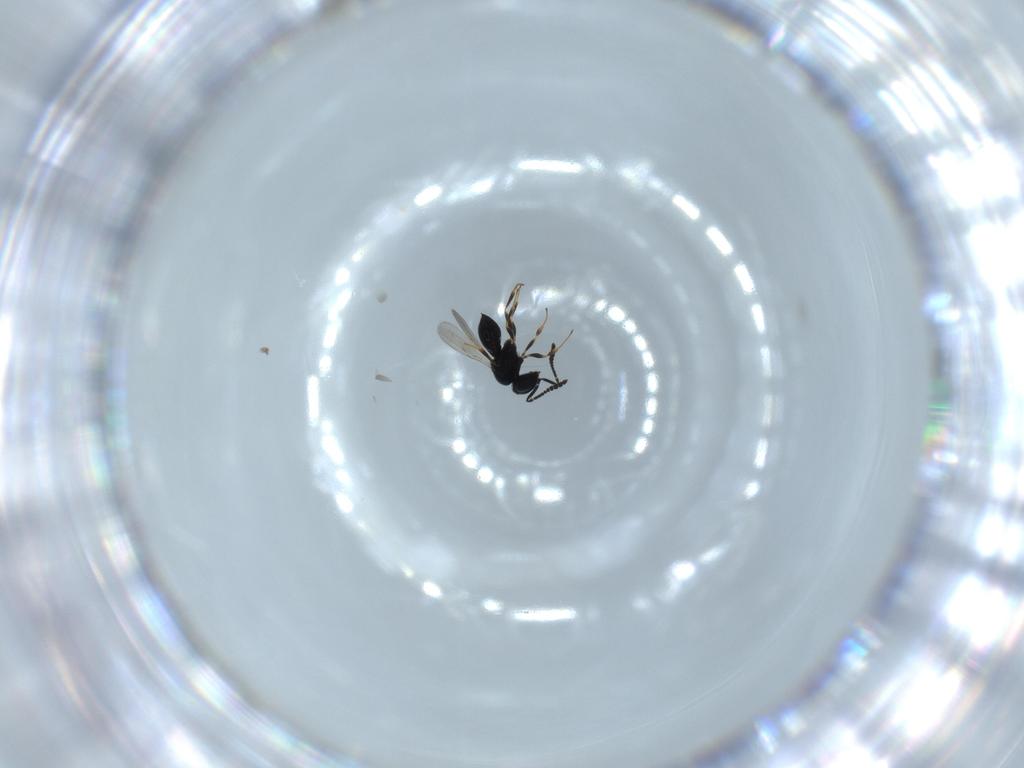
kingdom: Animalia
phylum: Arthropoda
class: Insecta
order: Hymenoptera
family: Scelionidae
